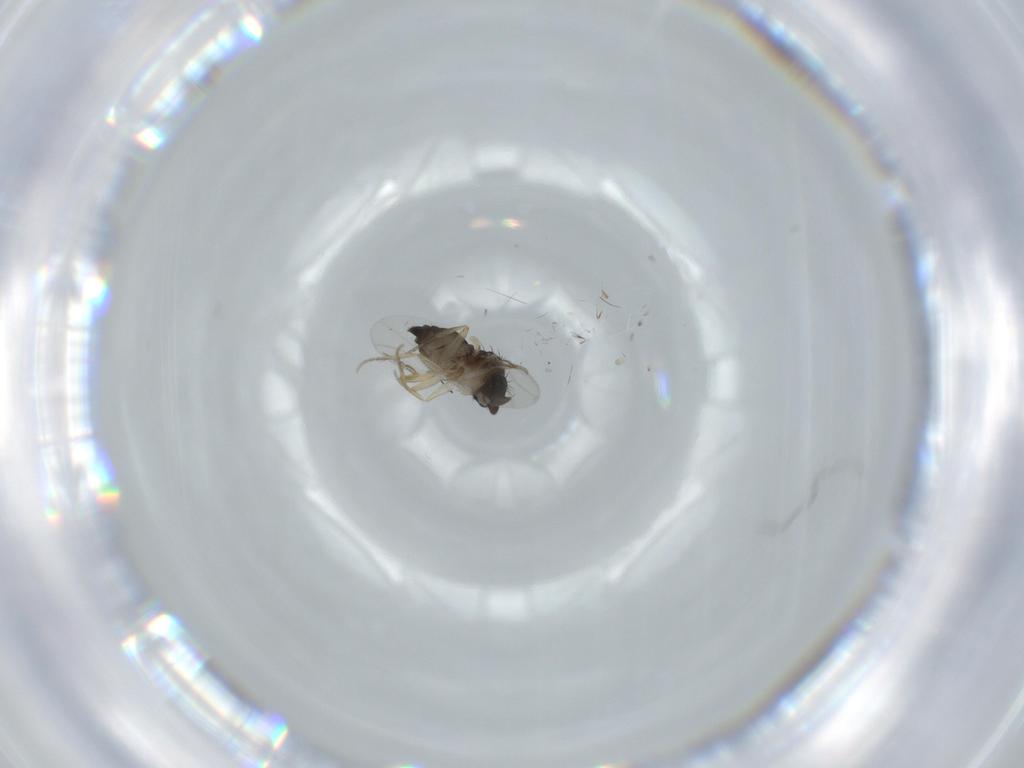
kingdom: Animalia
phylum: Arthropoda
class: Insecta
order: Diptera
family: Phoridae
